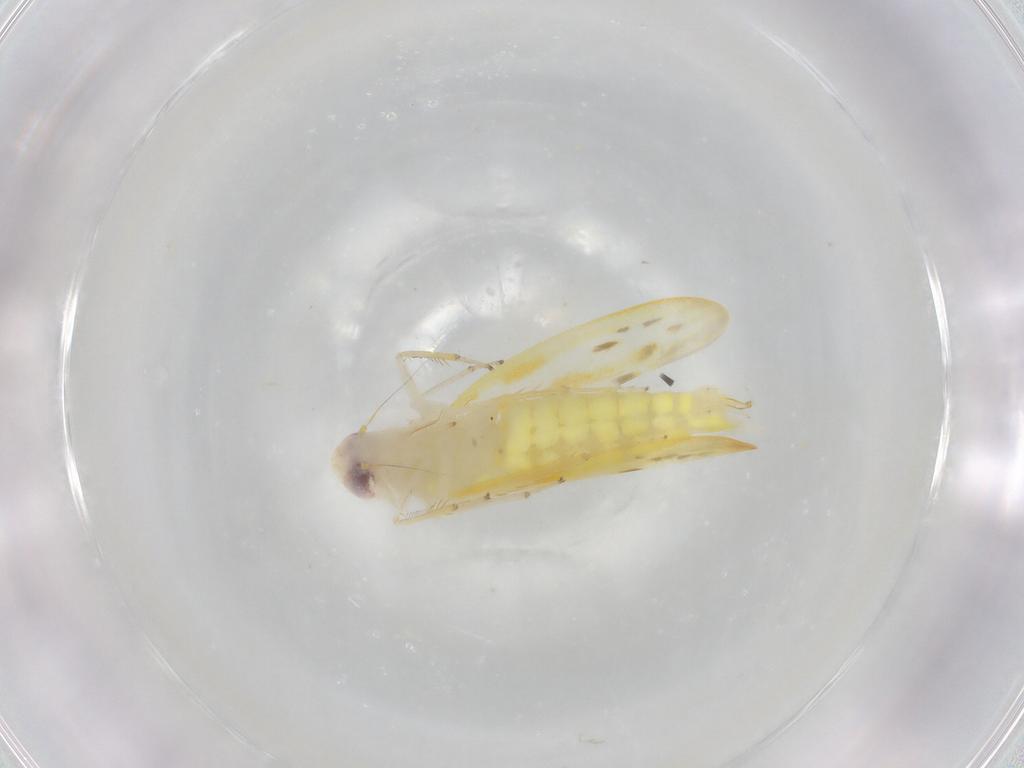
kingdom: Animalia
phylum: Arthropoda
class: Insecta
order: Hemiptera
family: Cicadellidae
